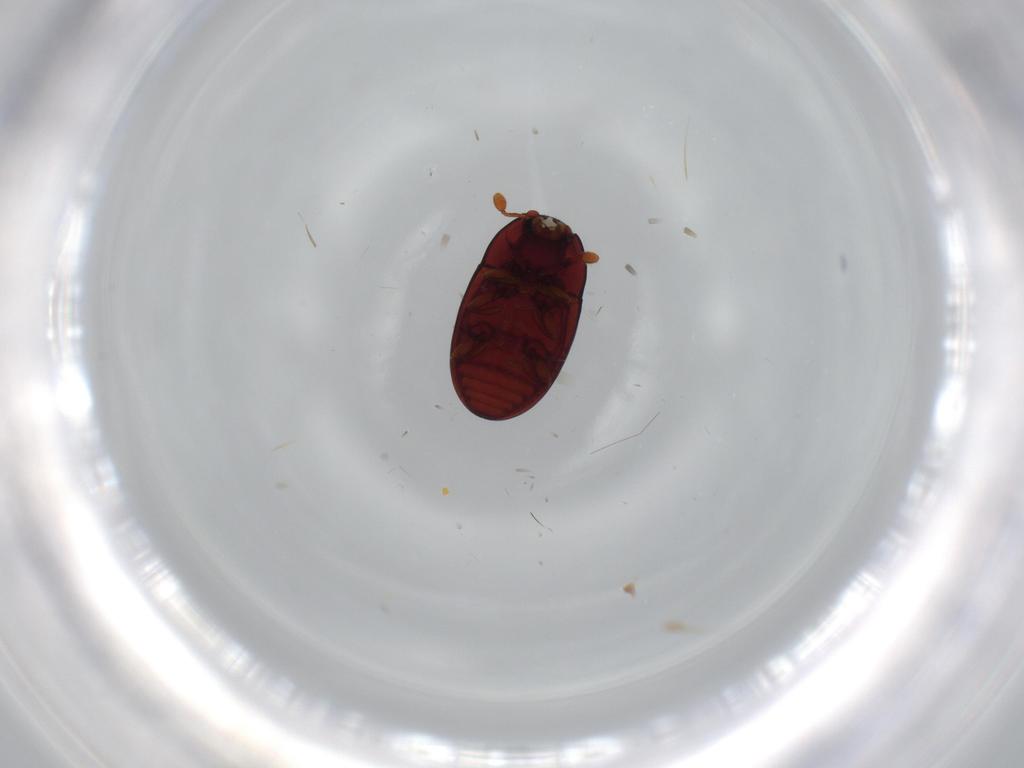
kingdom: Animalia
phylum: Arthropoda
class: Insecta
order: Coleoptera
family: Cerylonidae
